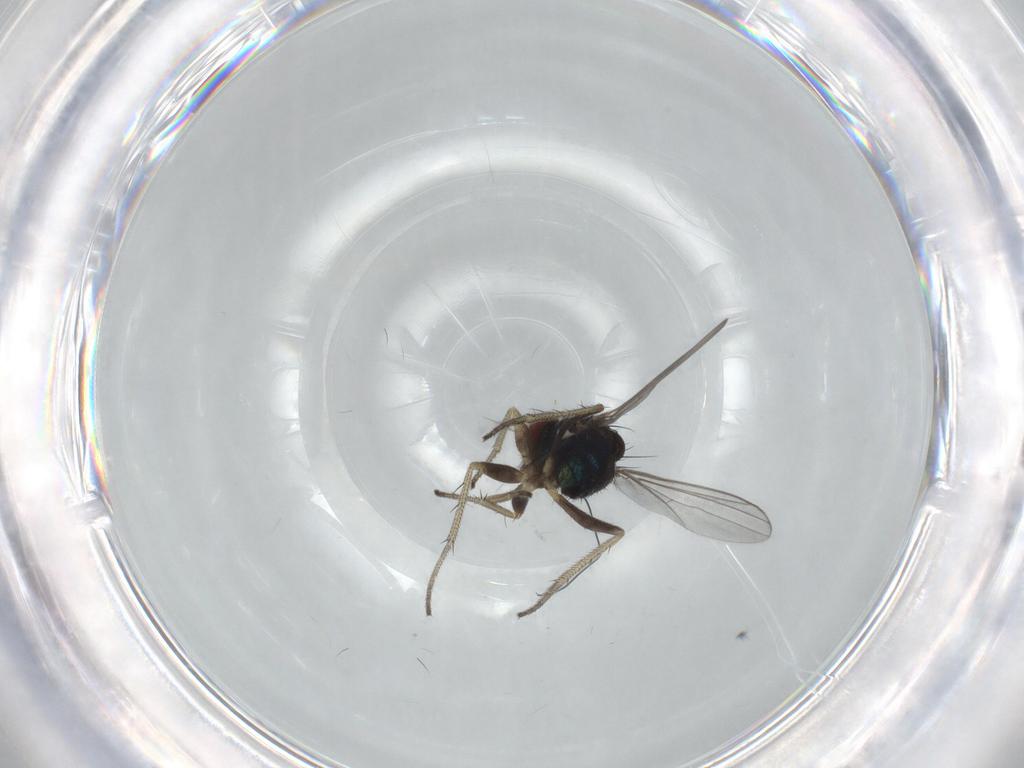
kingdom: Animalia
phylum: Arthropoda
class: Insecta
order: Diptera
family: Dolichopodidae
